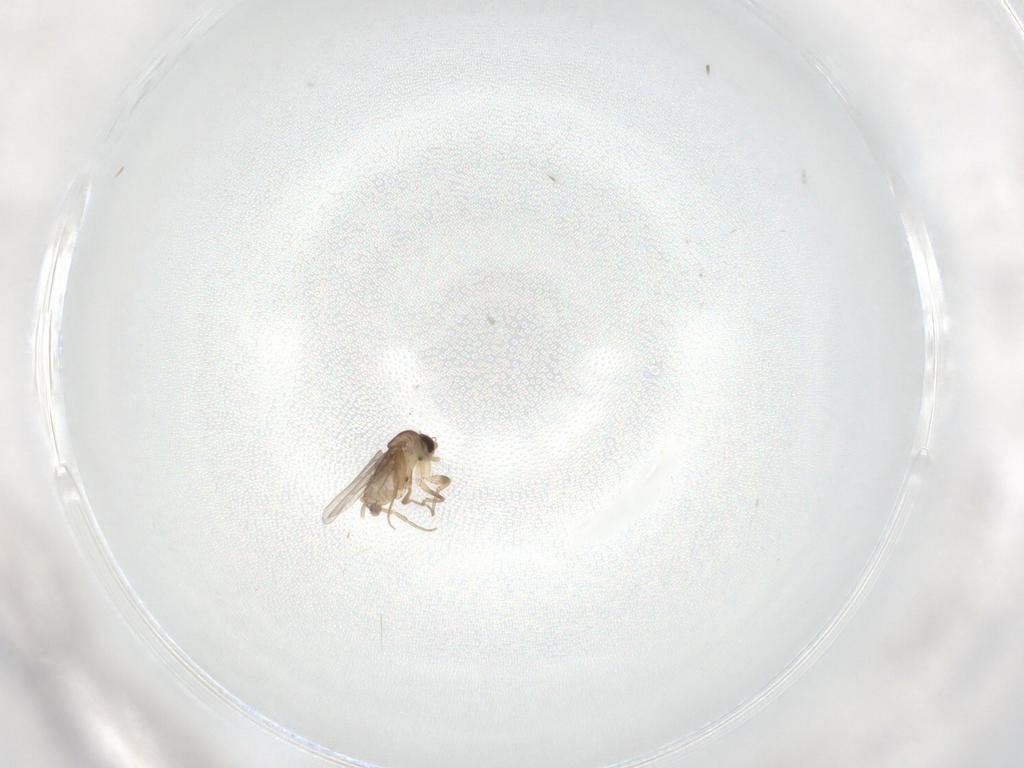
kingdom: Animalia
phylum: Arthropoda
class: Insecta
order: Diptera
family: Phoridae
